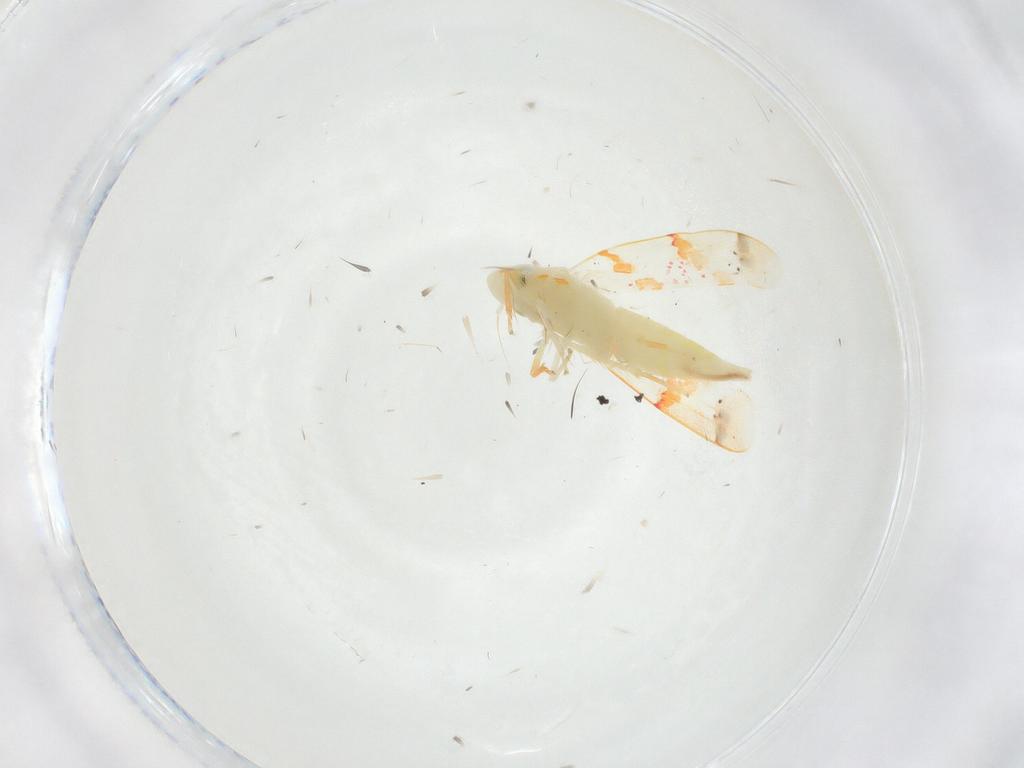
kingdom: Animalia
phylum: Arthropoda
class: Insecta
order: Hemiptera
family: Cicadellidae
